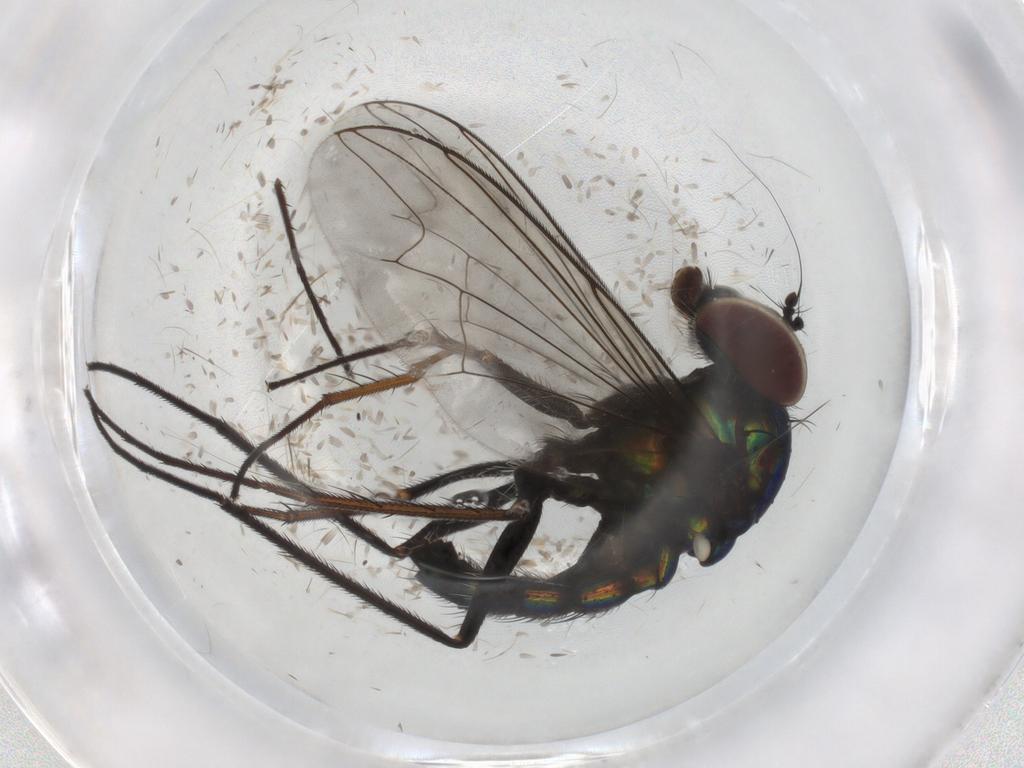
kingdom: Animalia
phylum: Arthropoda
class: Insecta
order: Diptera
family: Dolichopodidae
